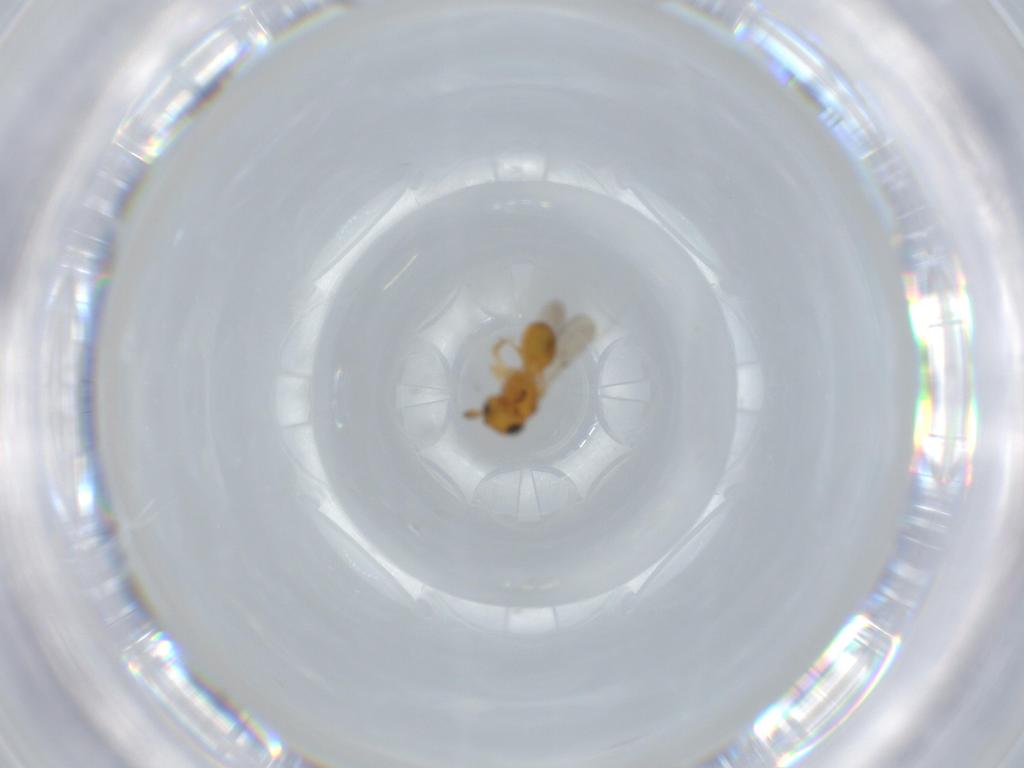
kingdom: Animalia
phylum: Arthropoda
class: Insecta
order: Hymenoptera
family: Scelionidae
